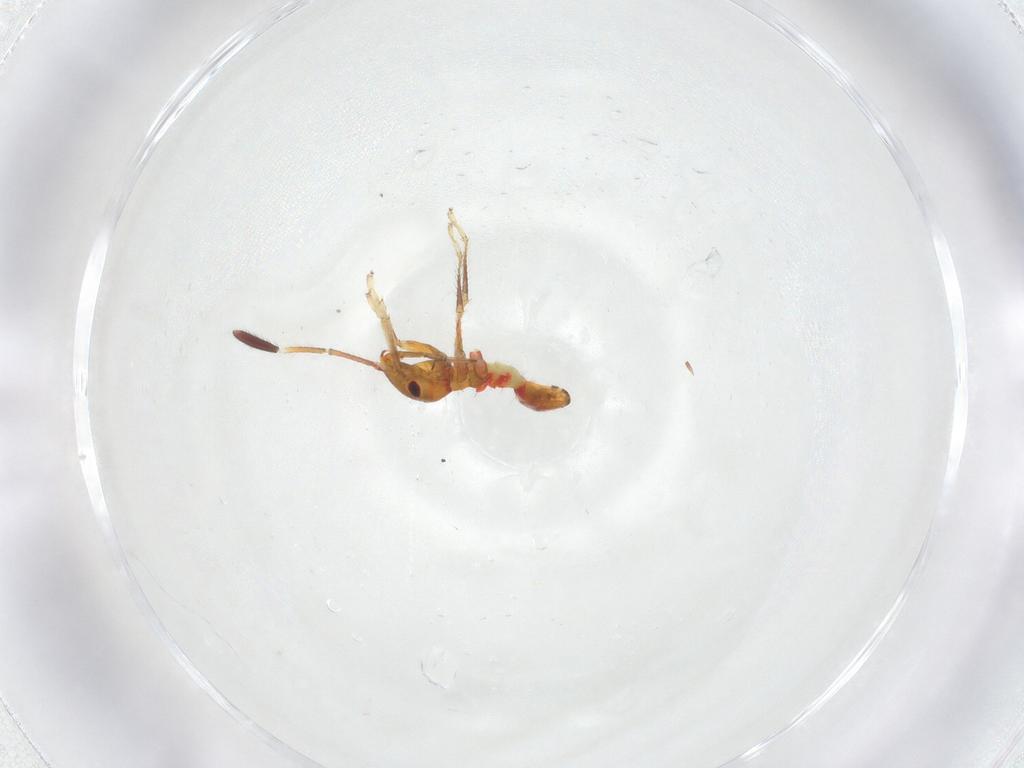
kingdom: Animalia
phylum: Arthropoda
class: Insecta
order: Hemiptera
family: Rhopalidae
